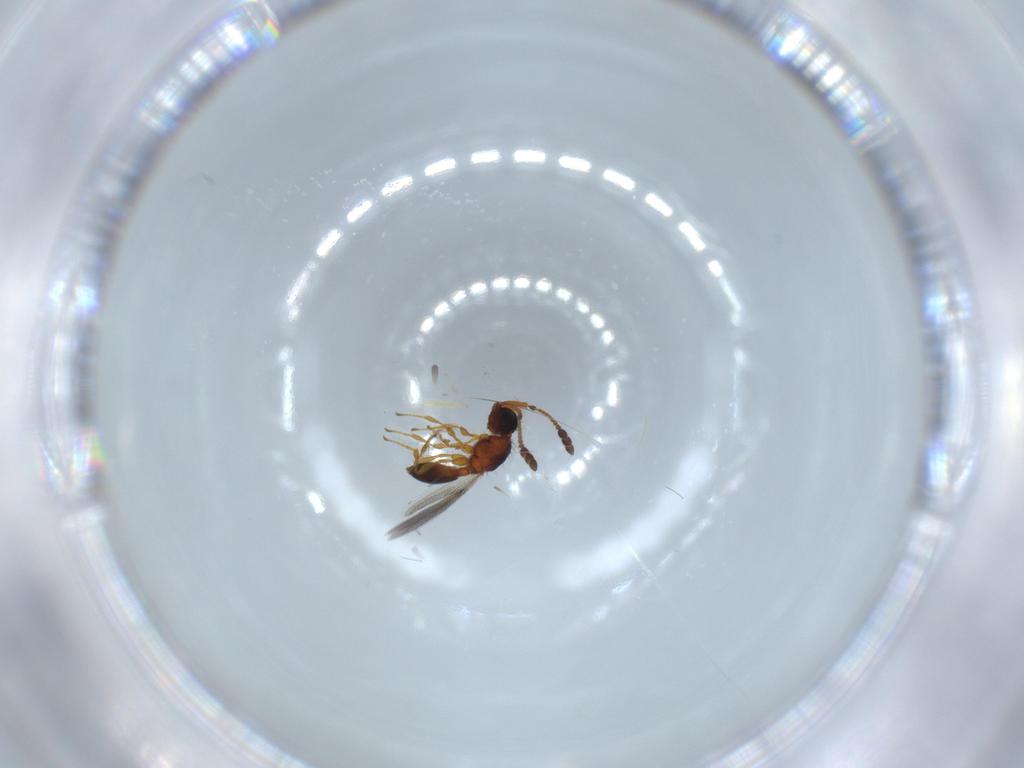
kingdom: Animalia
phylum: Arthropoda
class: Insecta
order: Hymenoptera
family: Diapriidae
